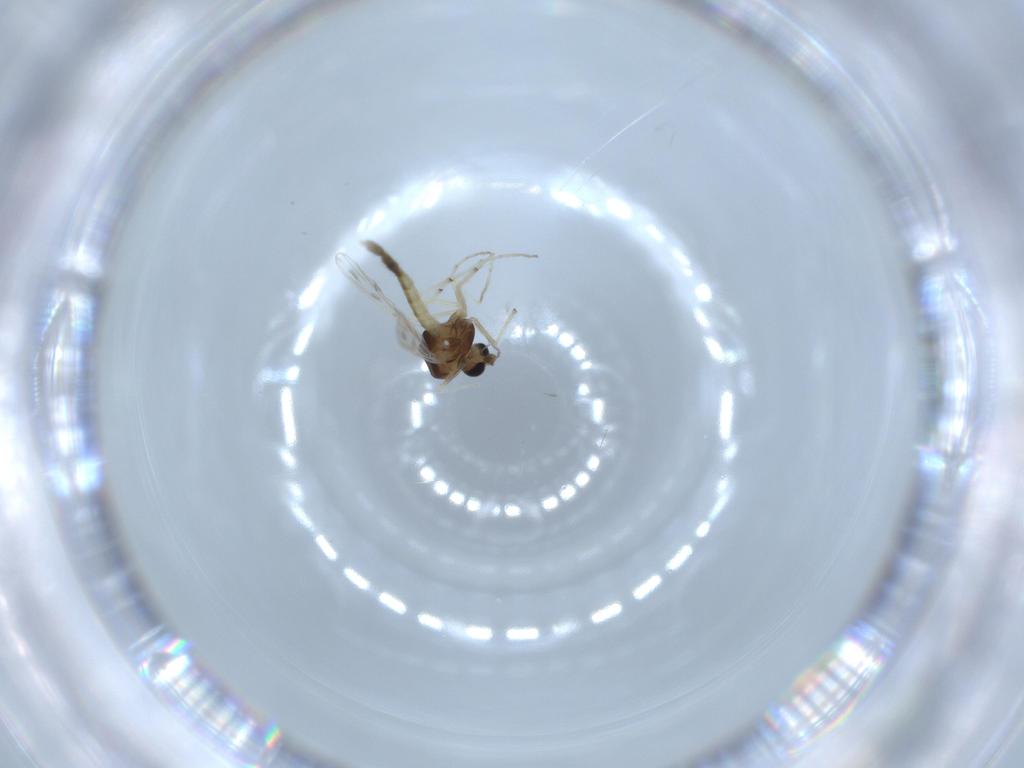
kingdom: Animalia
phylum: Arthropoda
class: Insecta
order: Diptera
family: Chironomidae
